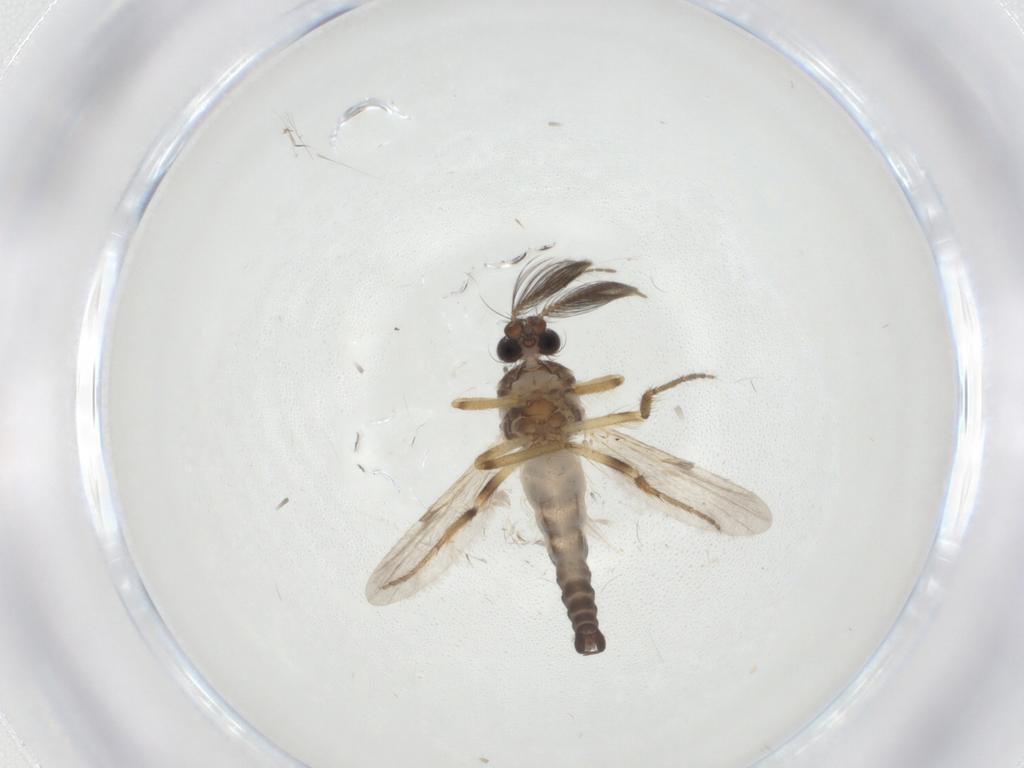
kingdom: Animalia
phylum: Arthropoda
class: Insecta
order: Diptera
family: Ceratopogonidae
